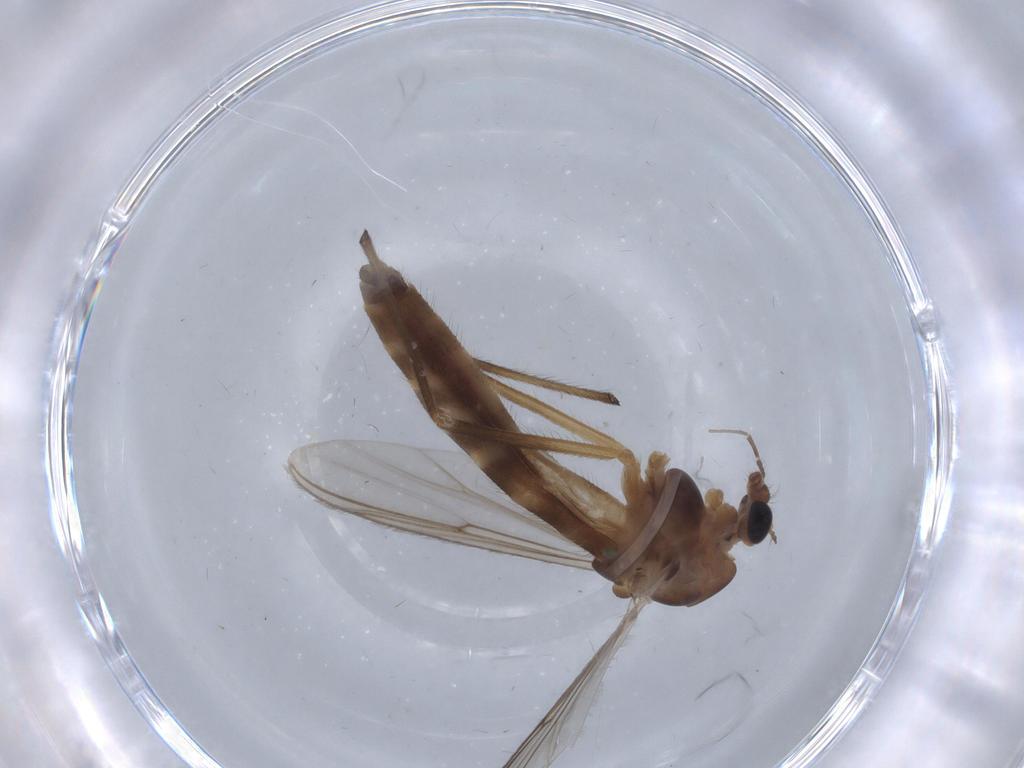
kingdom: Animalia
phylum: Arthropoda
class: Insecta
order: Diptera
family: Chironomidae
